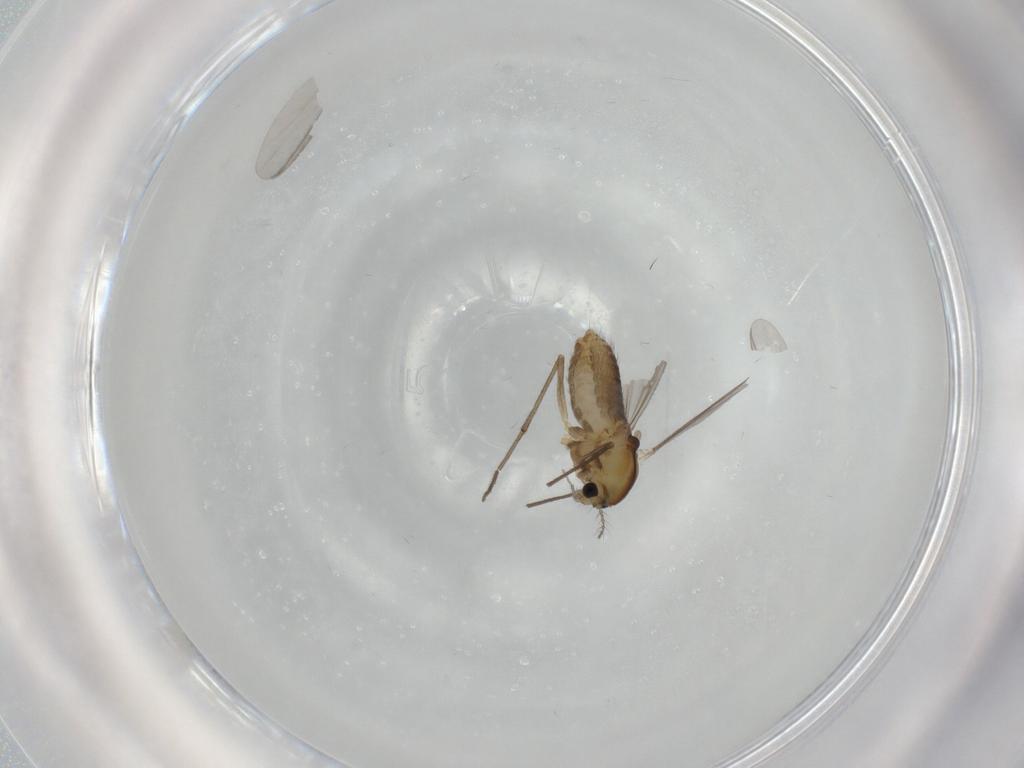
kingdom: Animalia
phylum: Arthropoda
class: Insecta
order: Diptera
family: Chironomidae
